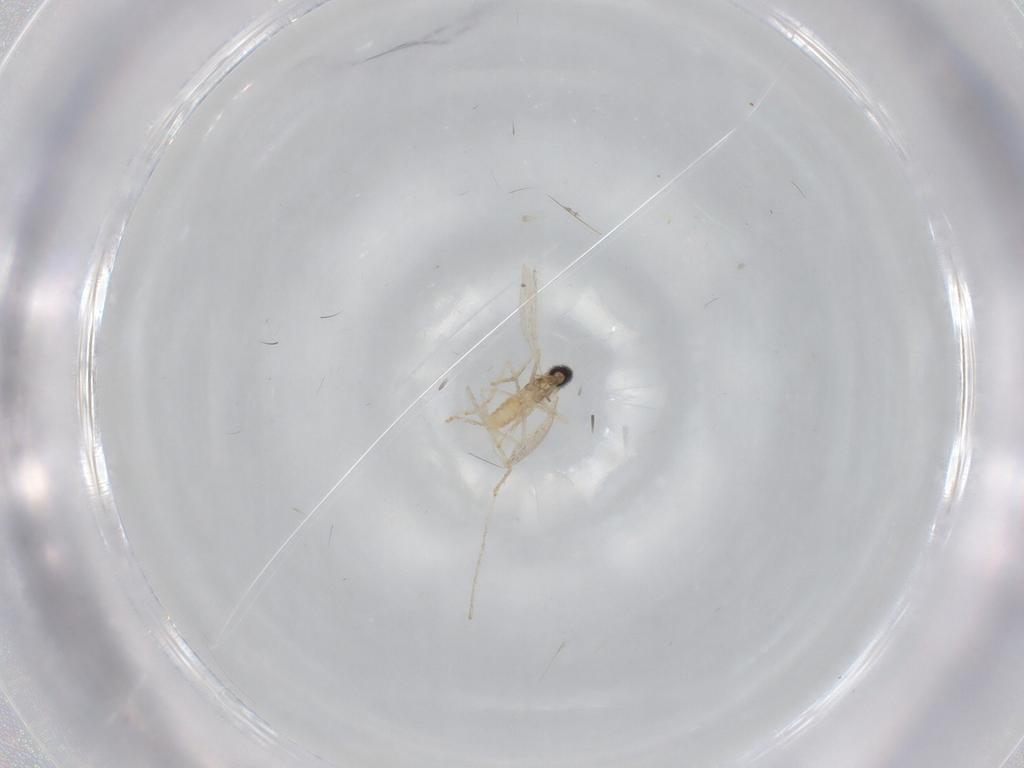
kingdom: Animalia
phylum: Arthropoda
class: Insecta
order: Diptera
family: Cecidomyiidae
